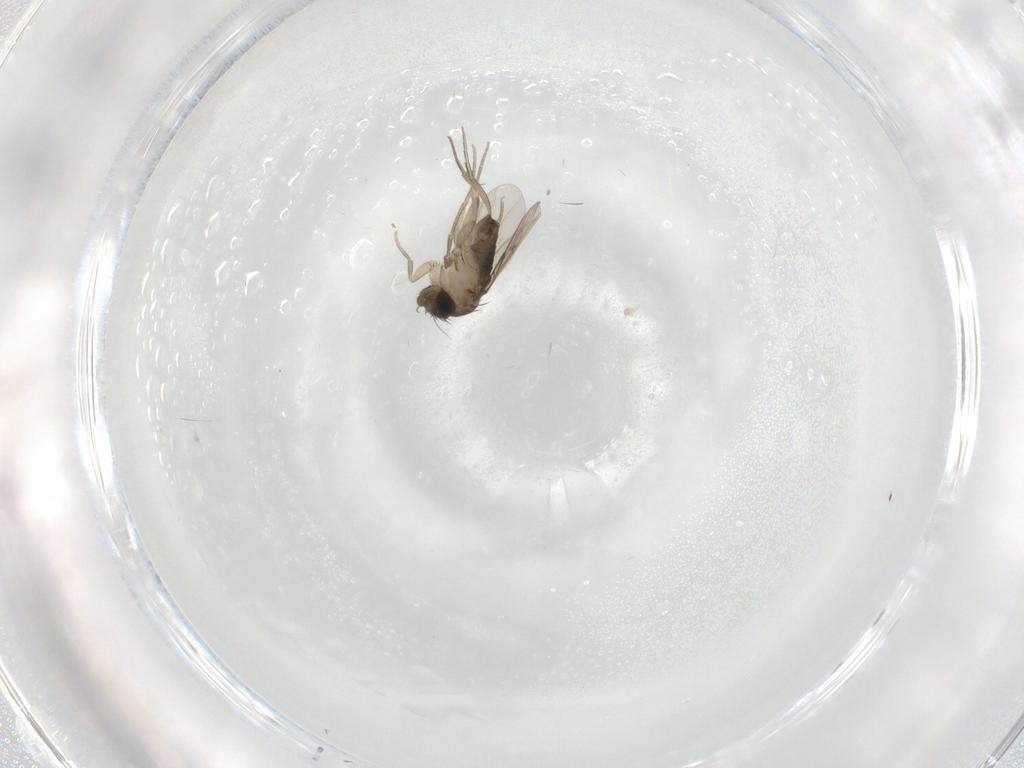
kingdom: Animalia
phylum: Arthropoda
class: Insecta
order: Diptera
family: Phoridae
